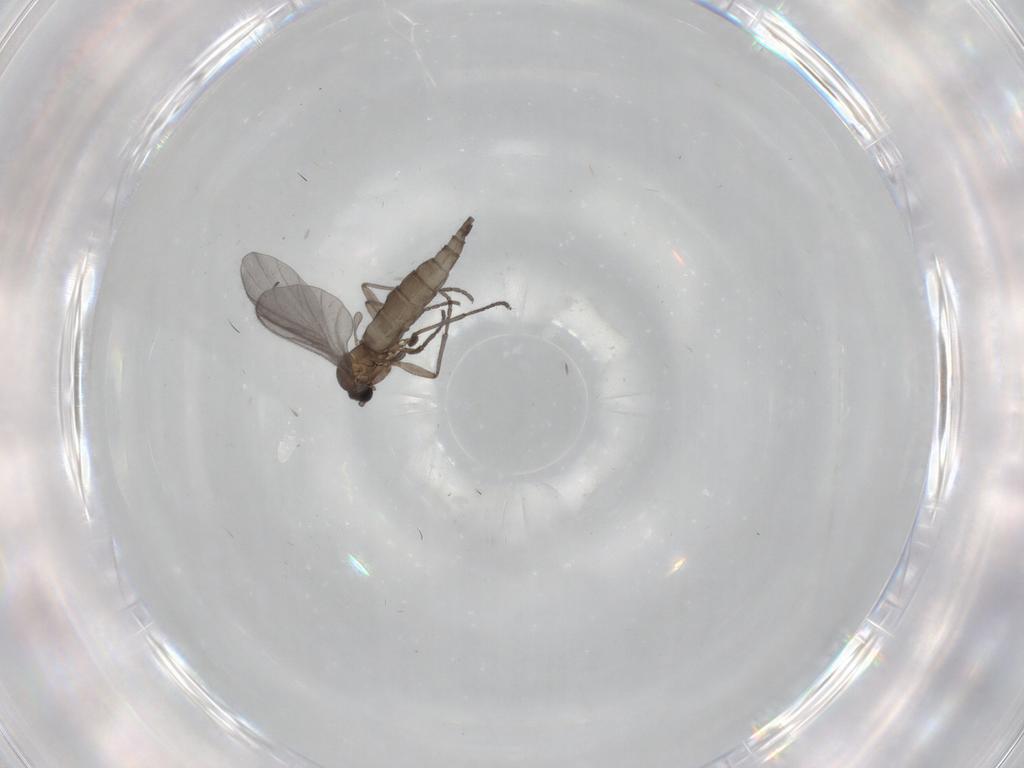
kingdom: Animalia
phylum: Arthropoda
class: Insecta
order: Diptera
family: Sciaridae
